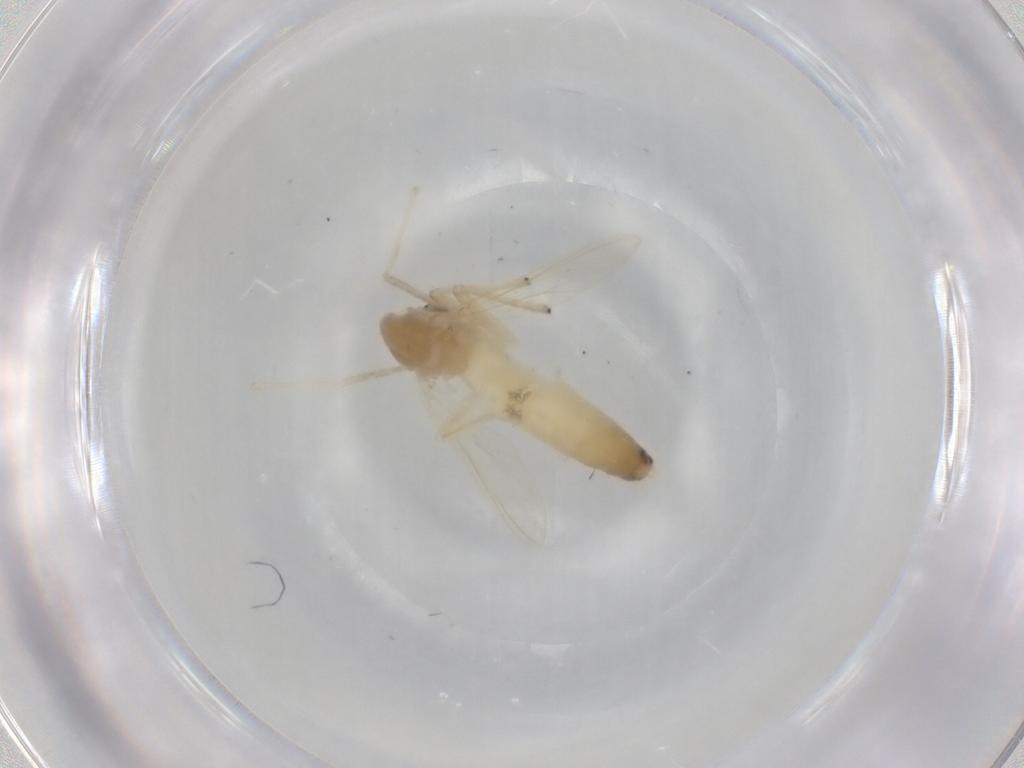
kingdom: Animalia
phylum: Arthropoda
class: Insecta
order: Diptera
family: Chironomidae
